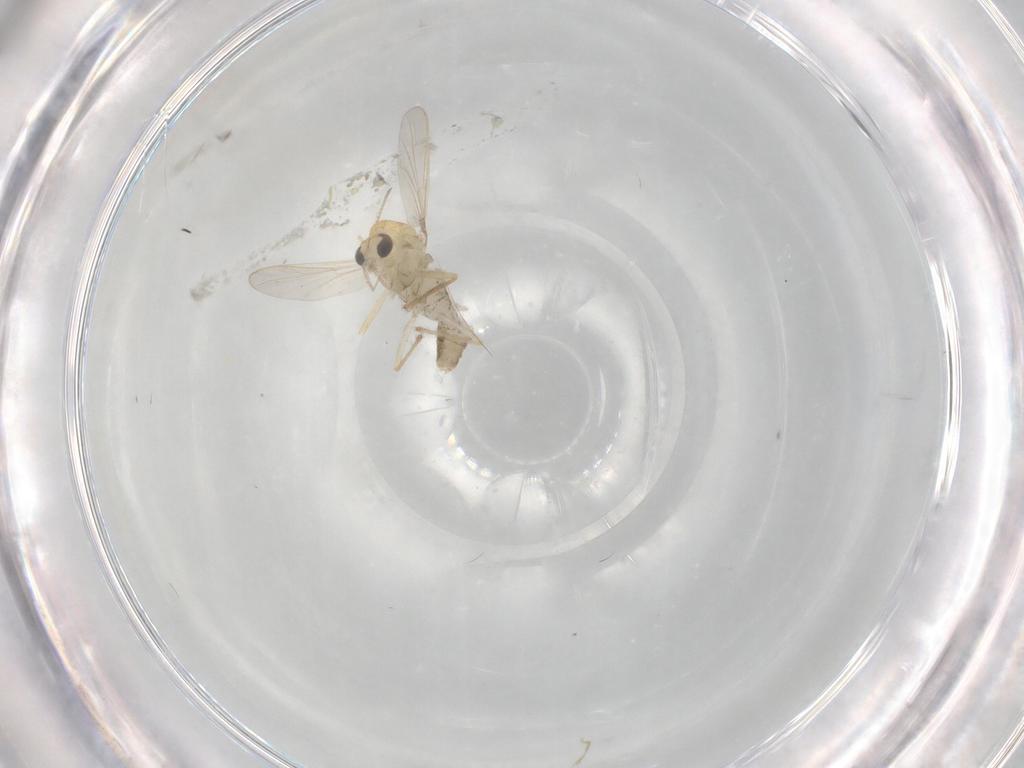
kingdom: Animalia
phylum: Arthropoda
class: Insecta
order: Diptera
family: Chironomidae
